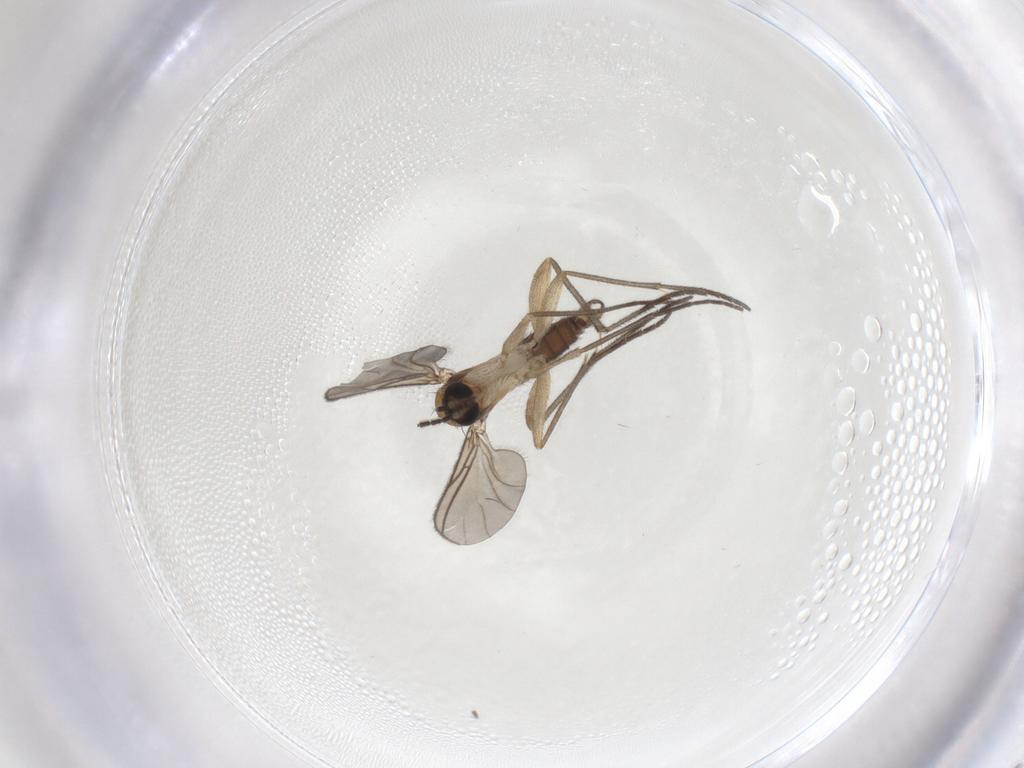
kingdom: Animalia
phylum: Arthropoda
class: Insecta
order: Diptera
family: Sciaridae
